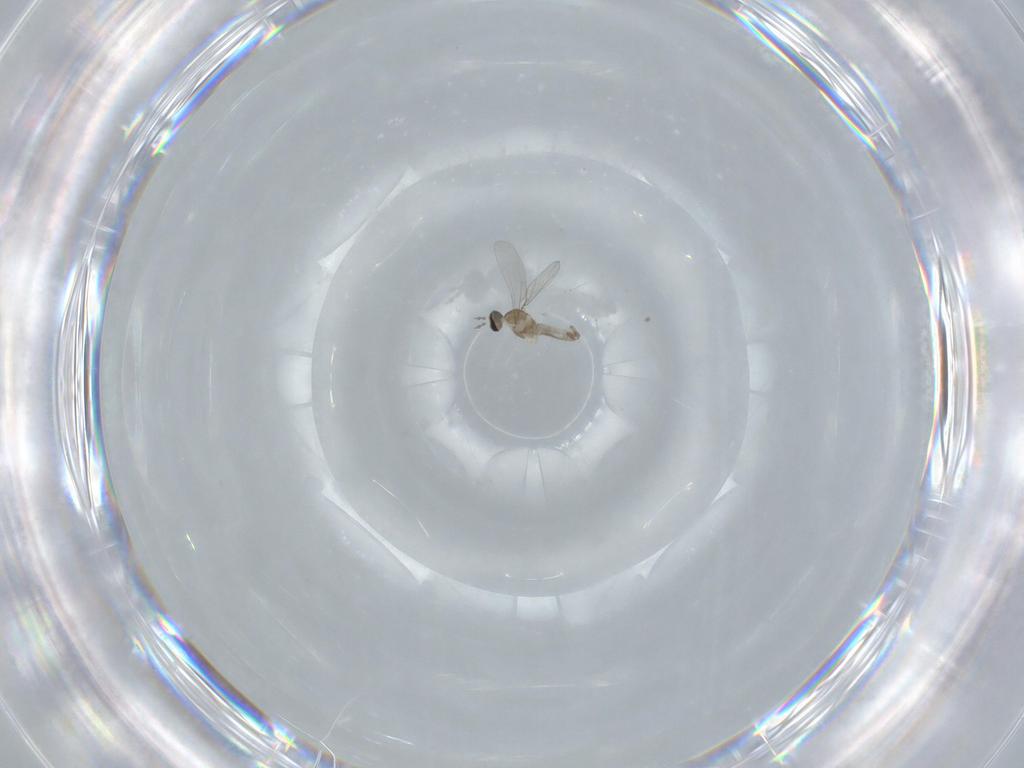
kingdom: Animalia
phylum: Arthropoda
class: Insecta
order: Diptera
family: Cecidomyiidae
